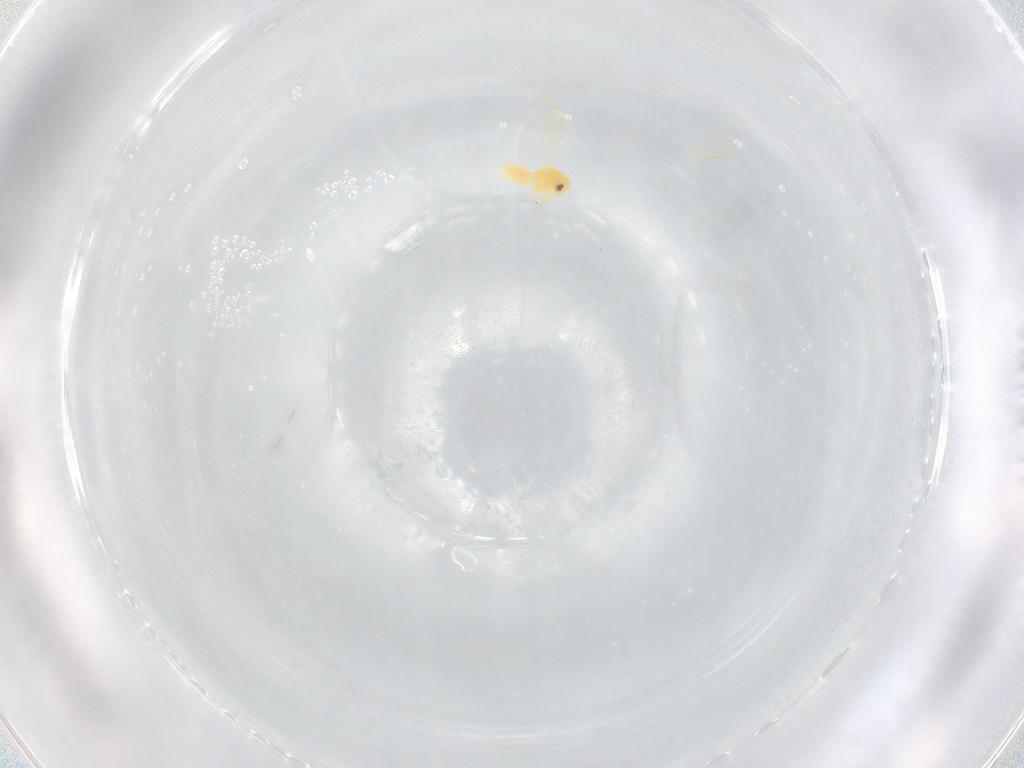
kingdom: Animalia
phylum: Arthropoda
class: Insecta
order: Hemiptera
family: Aleyrodidae
